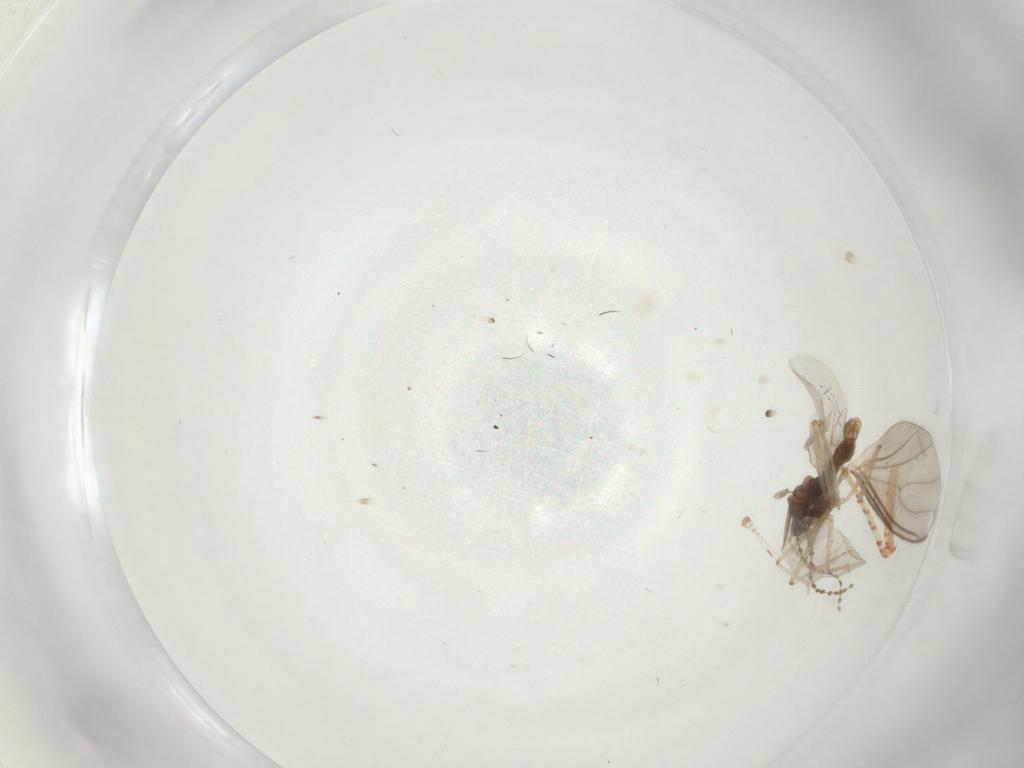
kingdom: Animalia
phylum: Arthropoda
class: Insecta
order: Diptera
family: Cecidomyiidae
